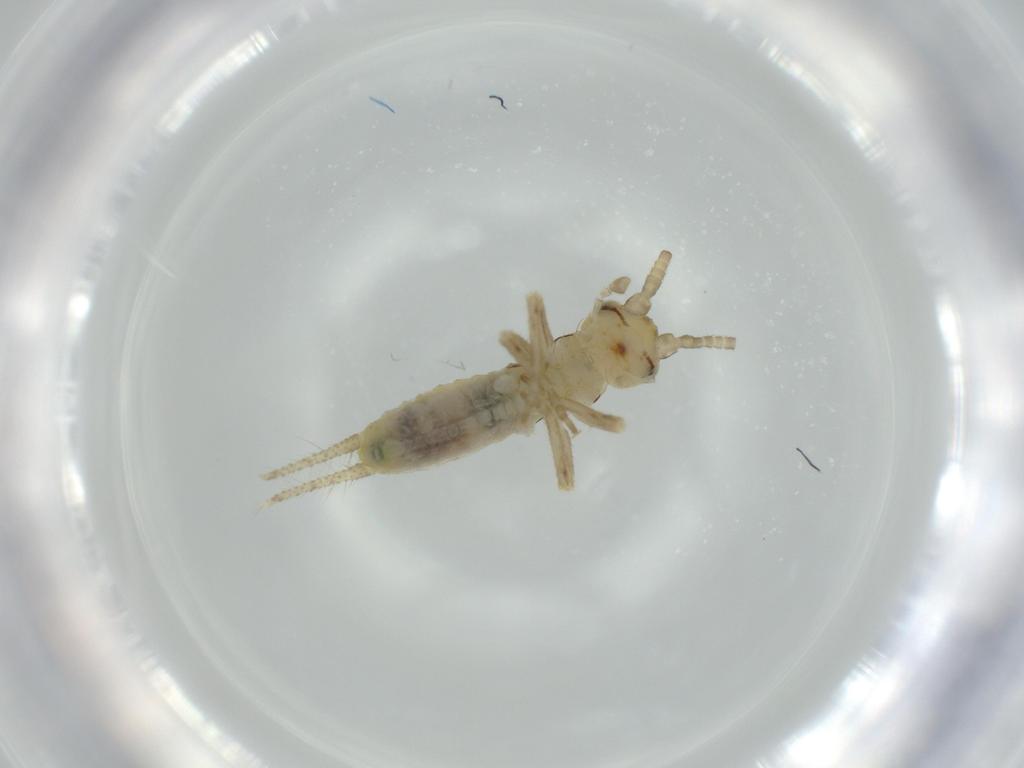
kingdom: Animalia
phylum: Arthropoda
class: Insecta
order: Orthoptera
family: Gryllidae
